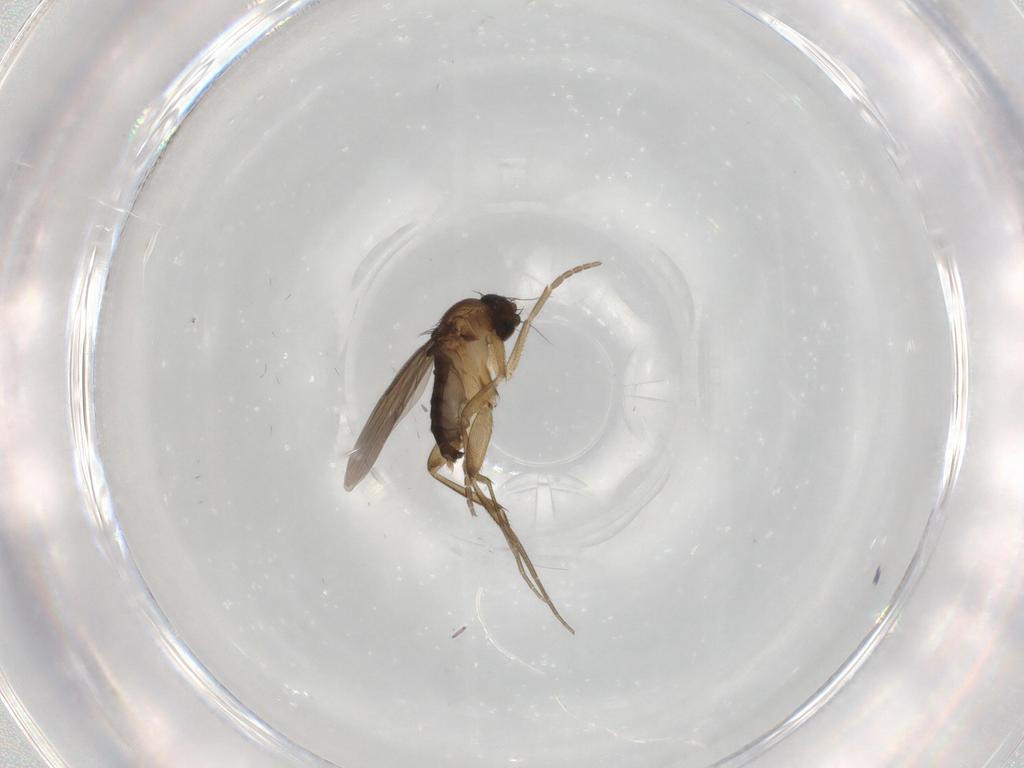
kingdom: Animalia
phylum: Arthropoda
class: Insecta
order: Diptera
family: Phoridae
